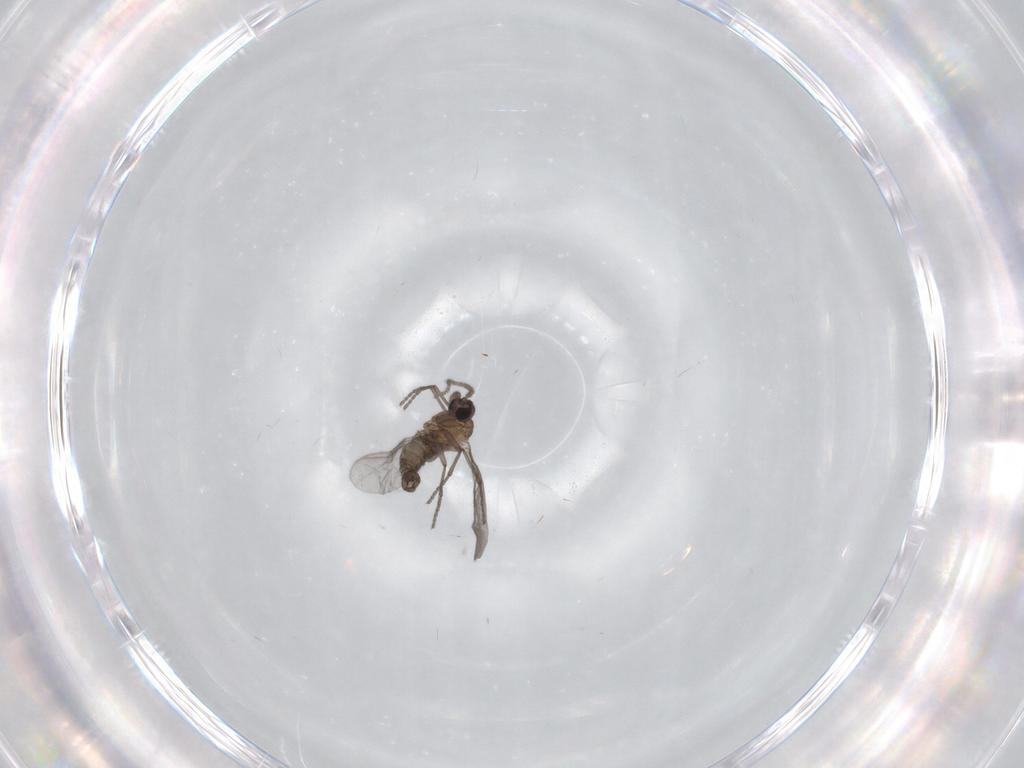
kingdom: Animalia
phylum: Arthropoda
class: Insecta
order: Diptera
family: Sciaridae
